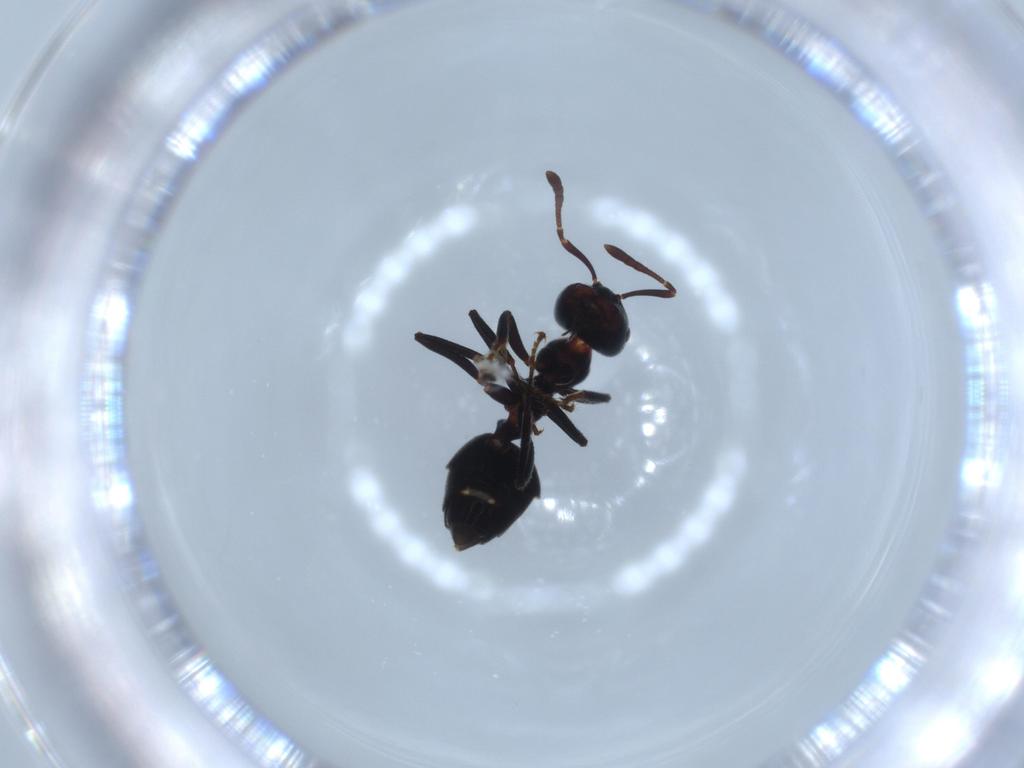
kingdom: Animalia
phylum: Arthropoda
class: Insecta
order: Hymenoptera
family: Formicidae
